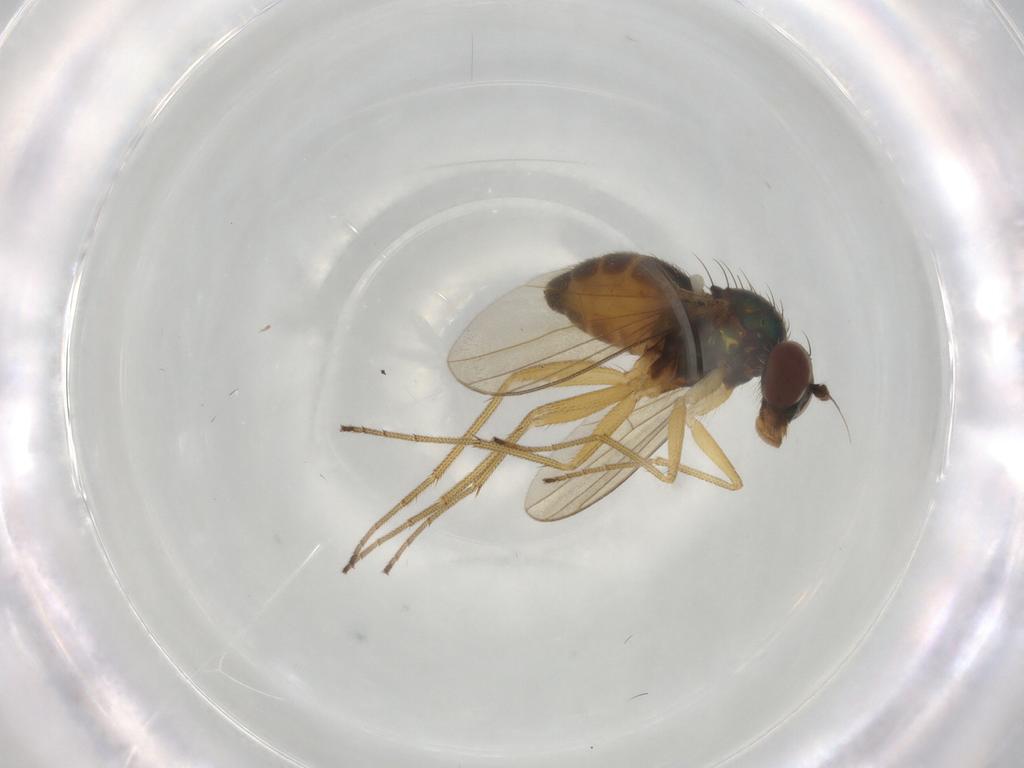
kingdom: Animalia
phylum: Arthropoda
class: Insecta
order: Diptera
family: Dolichopodidae
